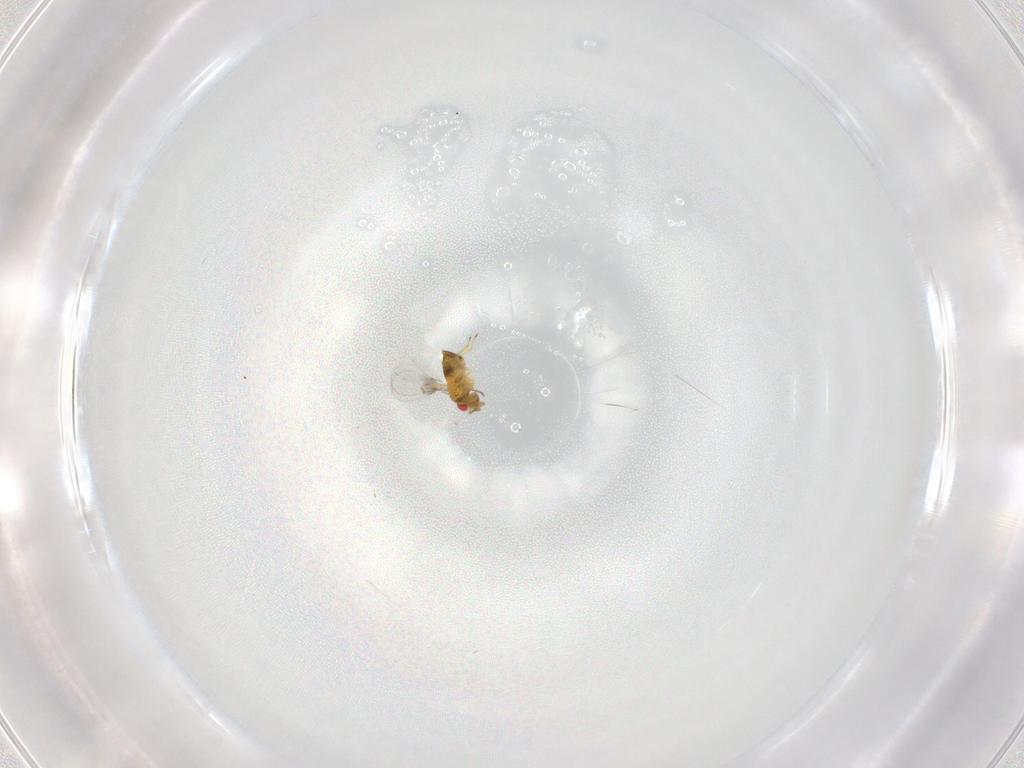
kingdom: Animalia
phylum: Arthropoda
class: Insecta
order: Hymenoptera
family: Trichogrammatidae
